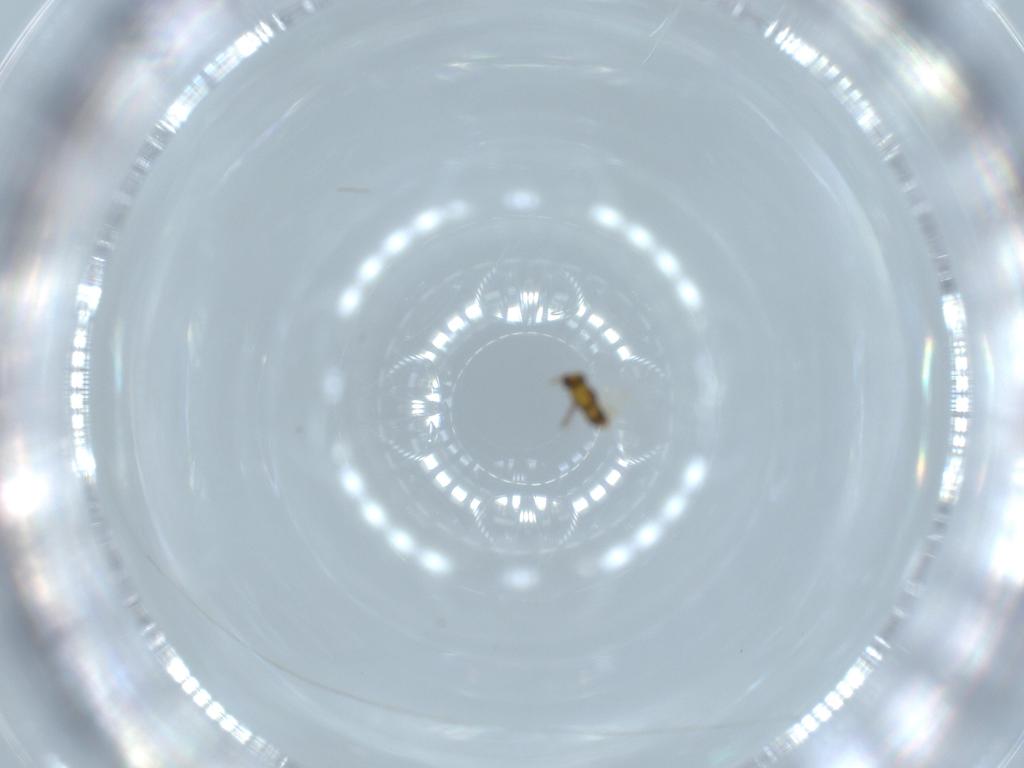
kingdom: Animalia
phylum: Arthropoda
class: Insecta
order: Hymenoptera
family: Aphelinidae
